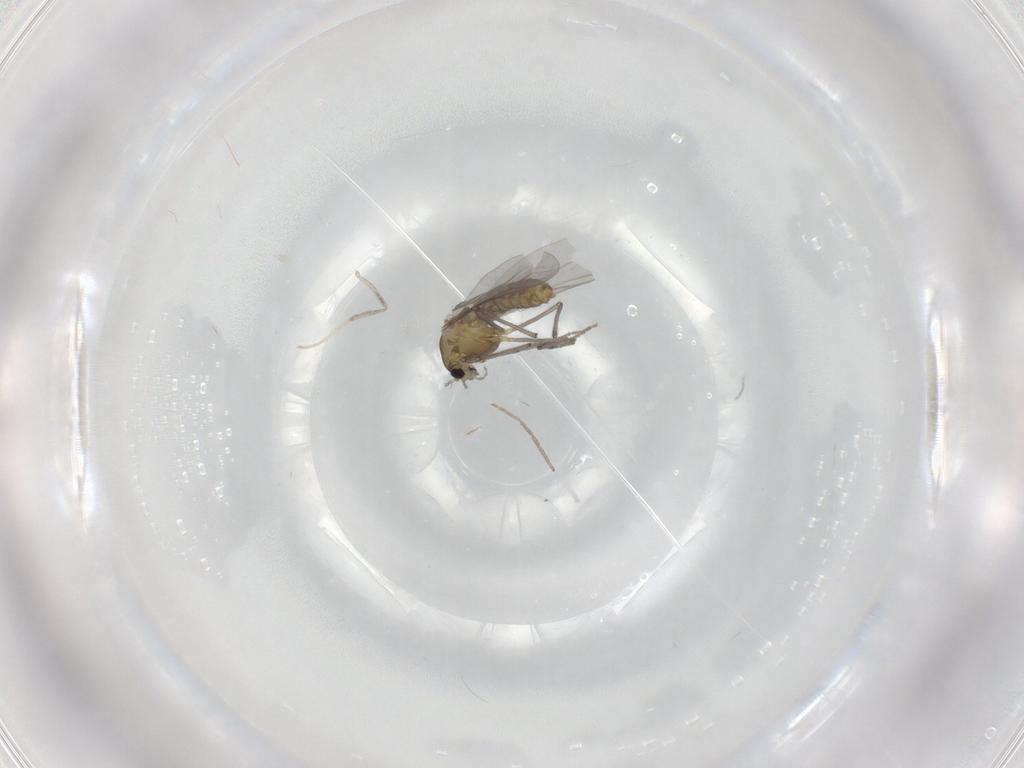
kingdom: Animalia
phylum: Arthropoda
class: Insecta
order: Diptera
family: Chironomidae
